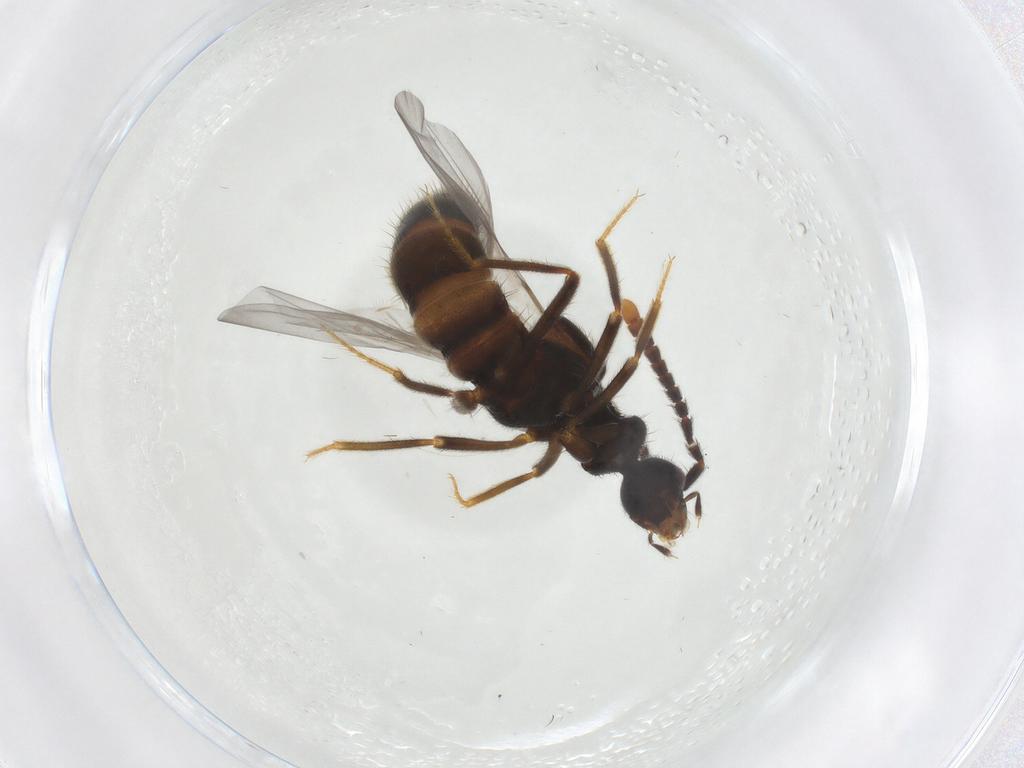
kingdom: Animalia
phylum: Arthropoda
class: Insecta
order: Coleoptera
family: Staphylinidae
